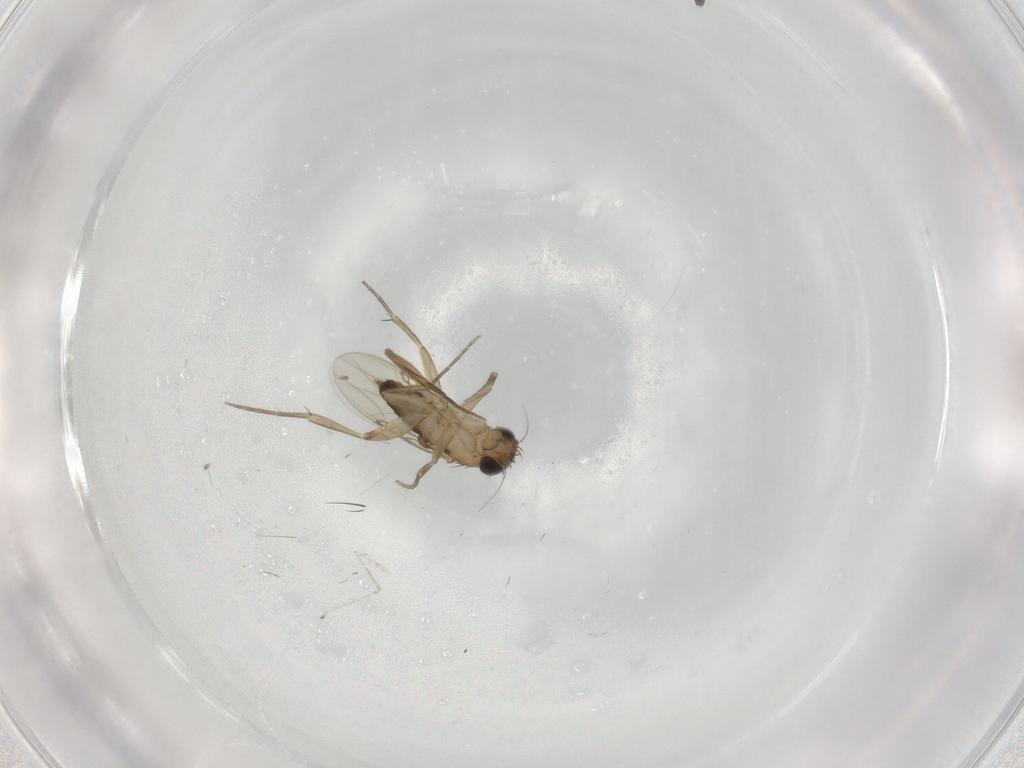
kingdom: Animalia
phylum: Arthropoda
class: Insecta
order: Diptera
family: Phoridae
